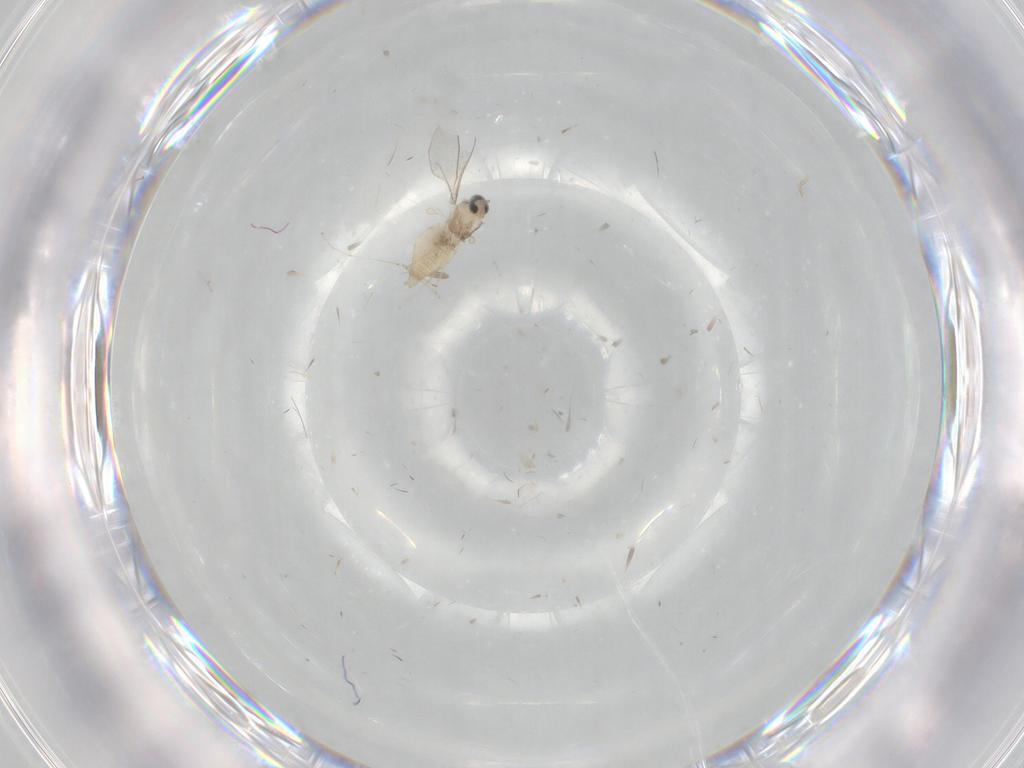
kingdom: Animalia
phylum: Arthropoda
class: Insecta
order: Diptera
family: Cecidomyiidae
